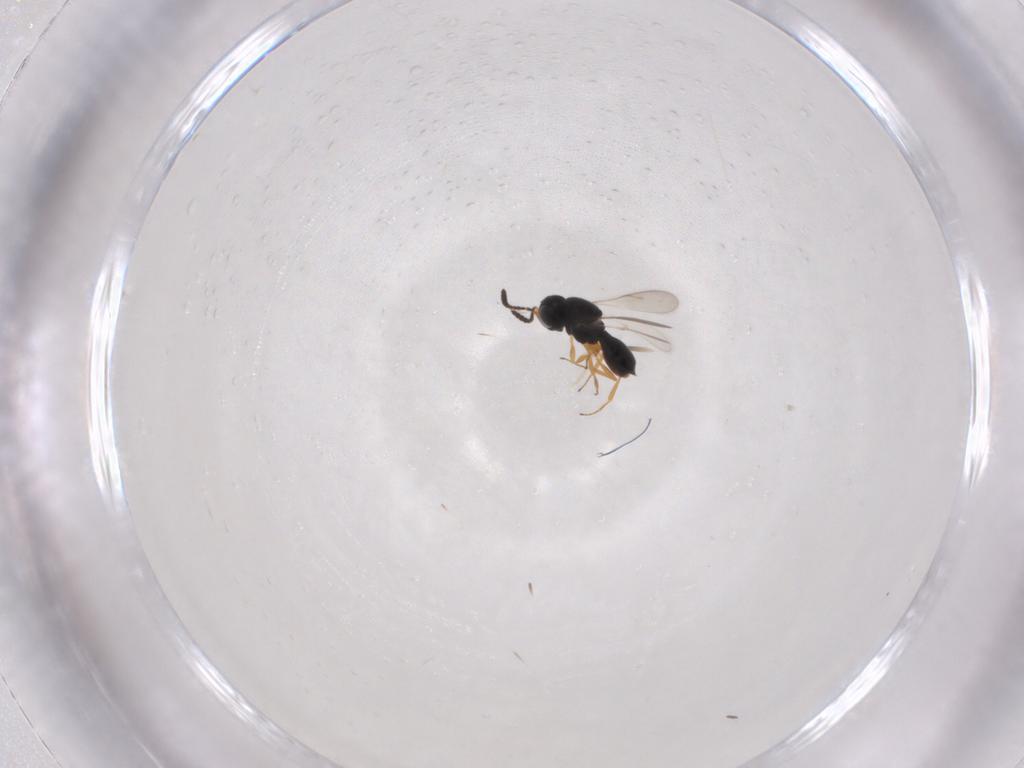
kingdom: Animalia
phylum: Arthropoda
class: Insecta
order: Hymenoptera
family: Scelionidae
